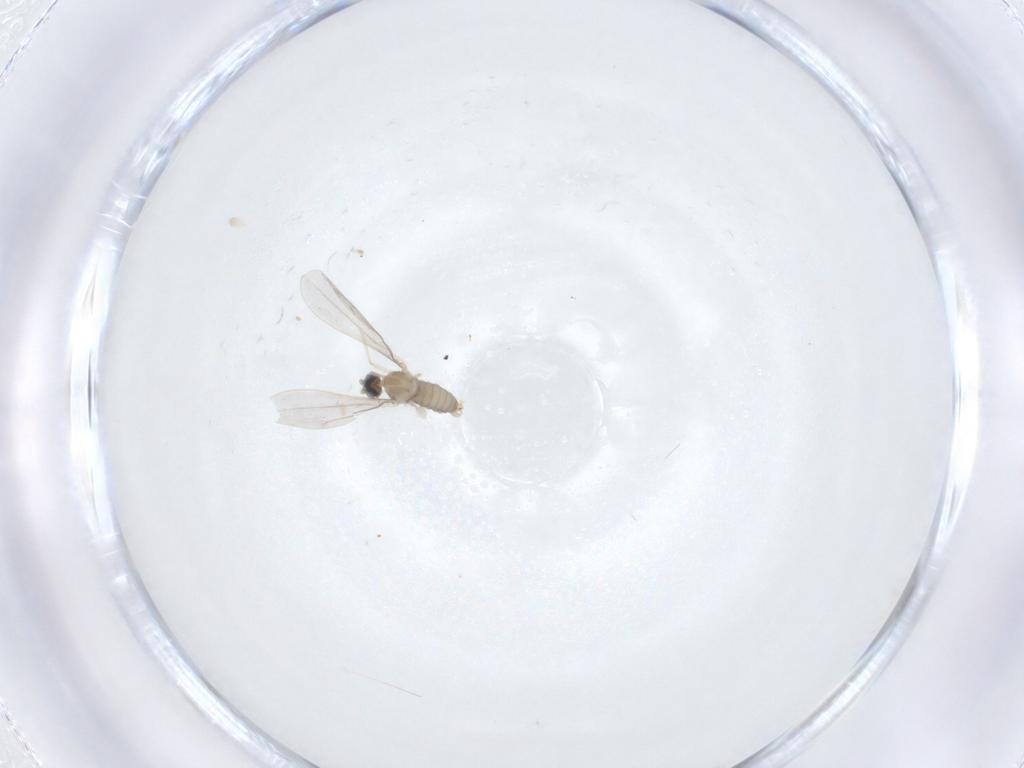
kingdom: Animalia
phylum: Arthropoda
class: Insecta
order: Diptera
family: Cecidomyiidae
